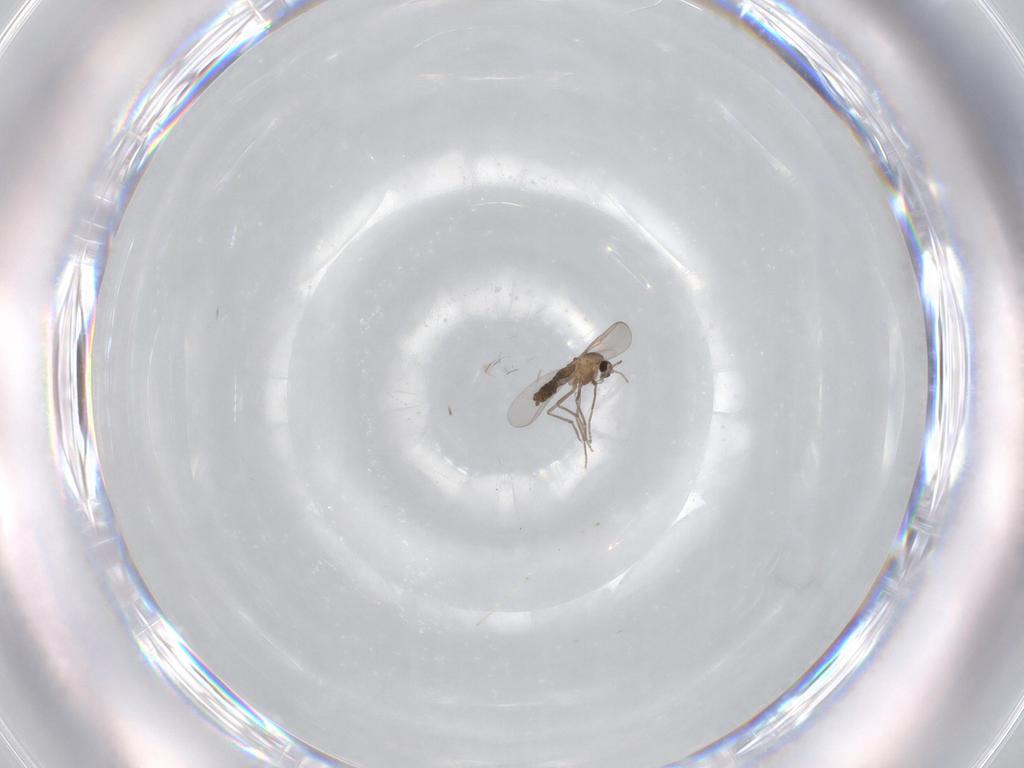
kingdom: Animalia
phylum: Arthropoda
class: Insecta
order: Diptera
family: Chironomidae
